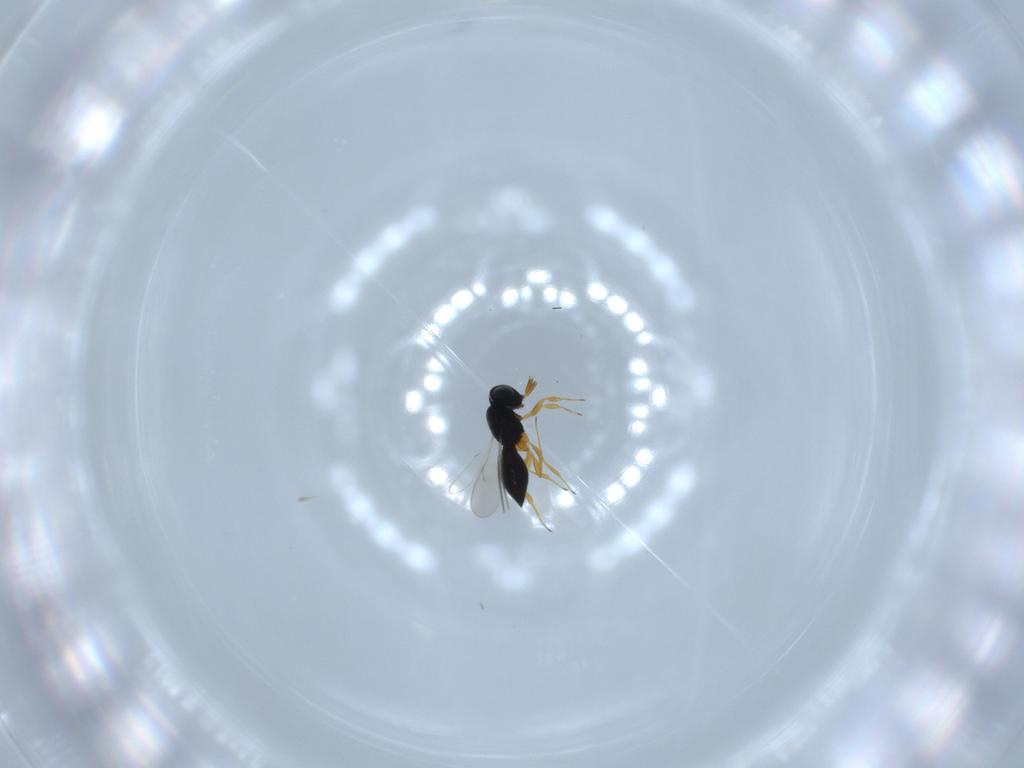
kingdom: Animalia
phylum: Arthropoda
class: Insecta
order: Hymenoptera
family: Scelionidae
